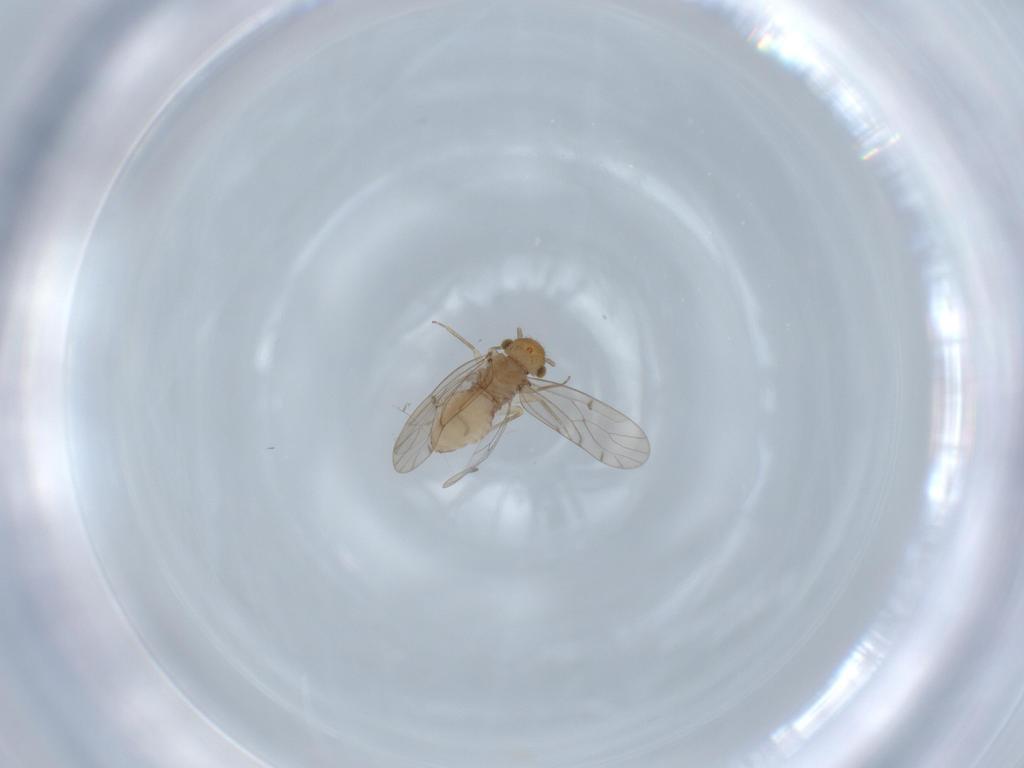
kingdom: Animalia
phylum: Arthropoda
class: Insecta
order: Psocodea
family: Ectopsocidae
